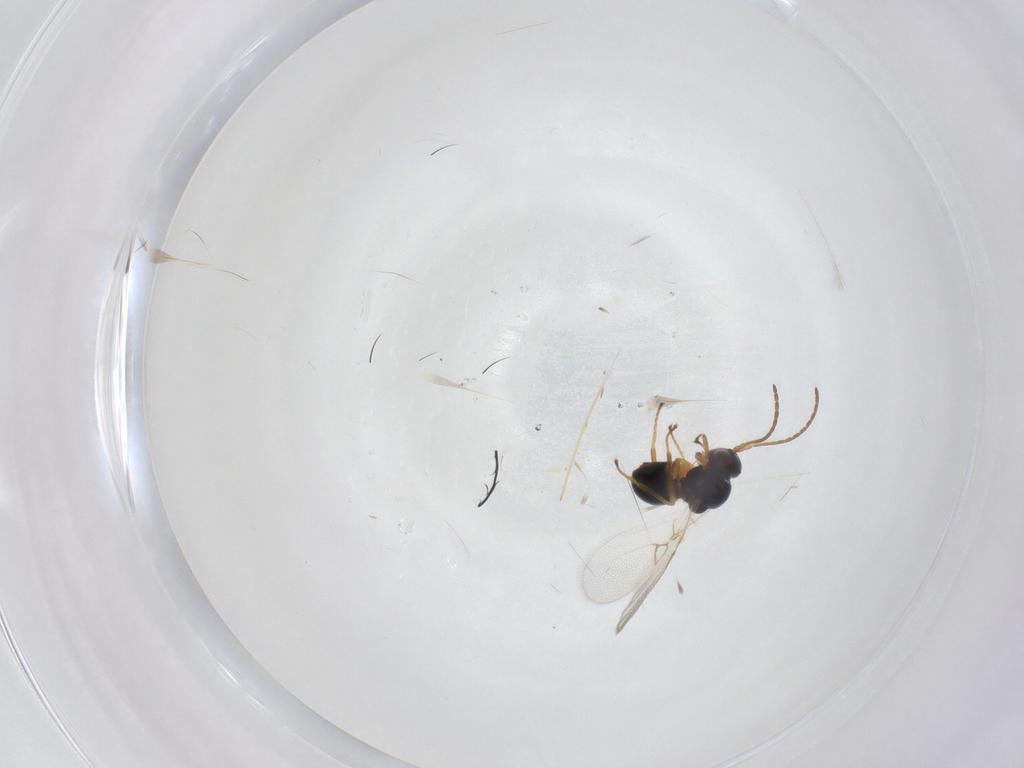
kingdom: Animalia
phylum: Arthropoda
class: Insecta
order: Hymenoptera
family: Figitidae
